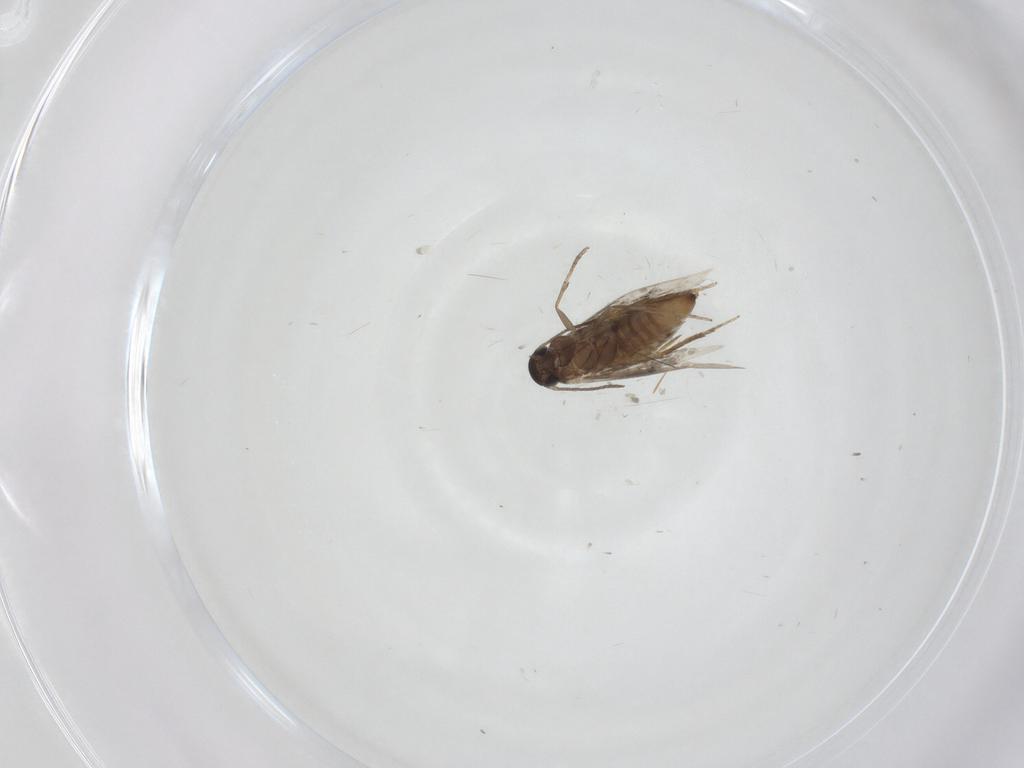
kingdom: Animalia
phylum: Arthropoda
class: Insecta
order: Lepidoptera
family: Heliozelidae
